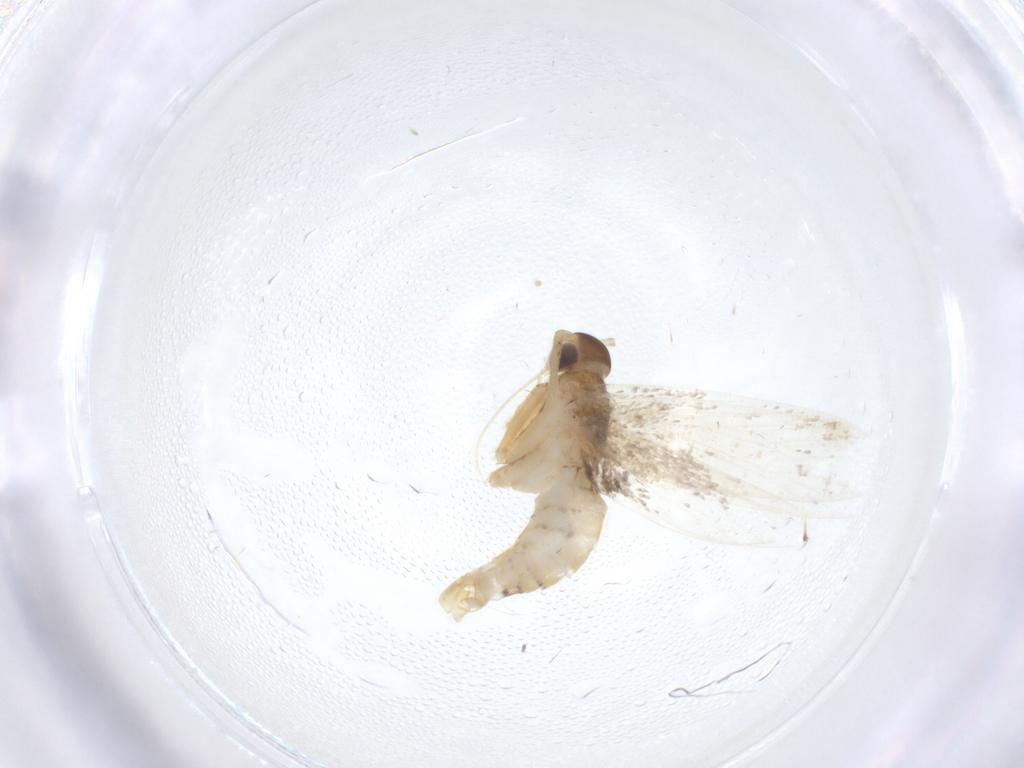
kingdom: Animalia
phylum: Arthropoda
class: Insecta
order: Lepidoptera
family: Oecophoridae
